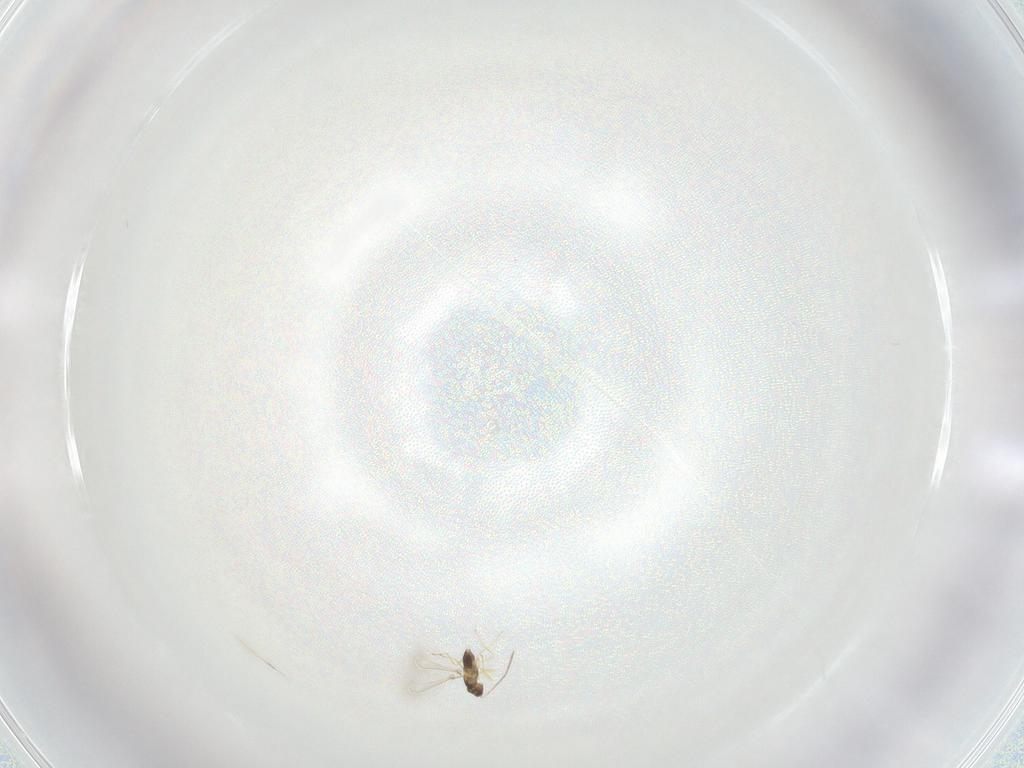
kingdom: Animalia
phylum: Arthropoda
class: Insecta
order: Hymenoptera
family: Mymaridae
